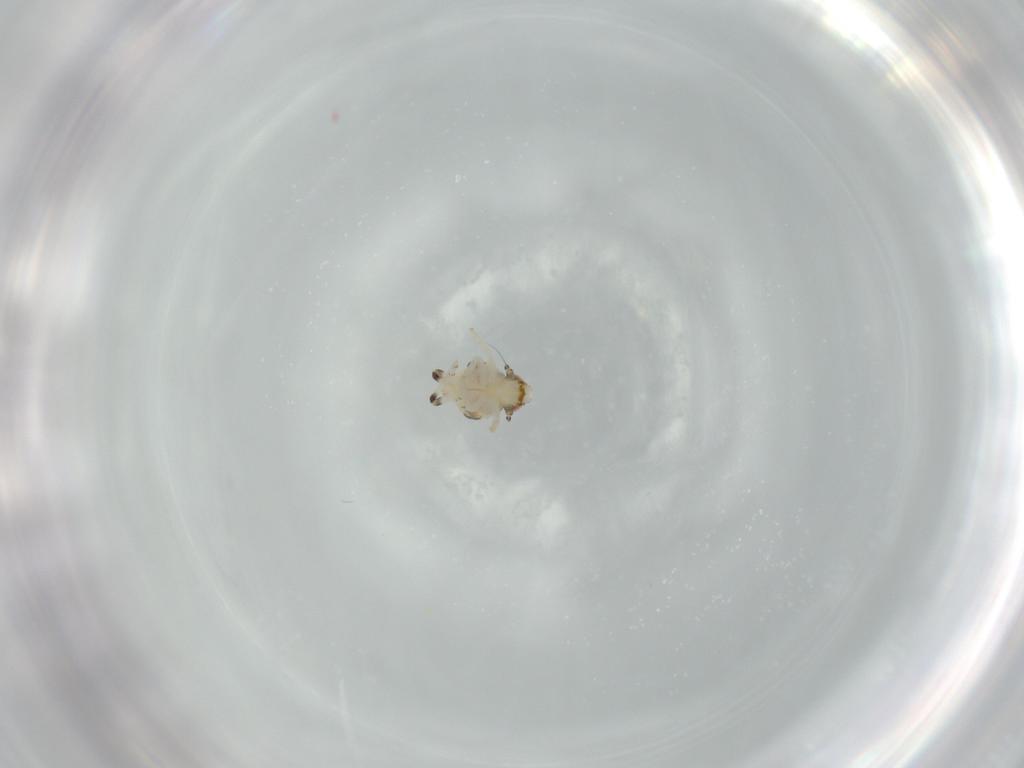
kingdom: Animalia
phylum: Arthropoda
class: Insecta
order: Hemiptera
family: Nogodinidae
